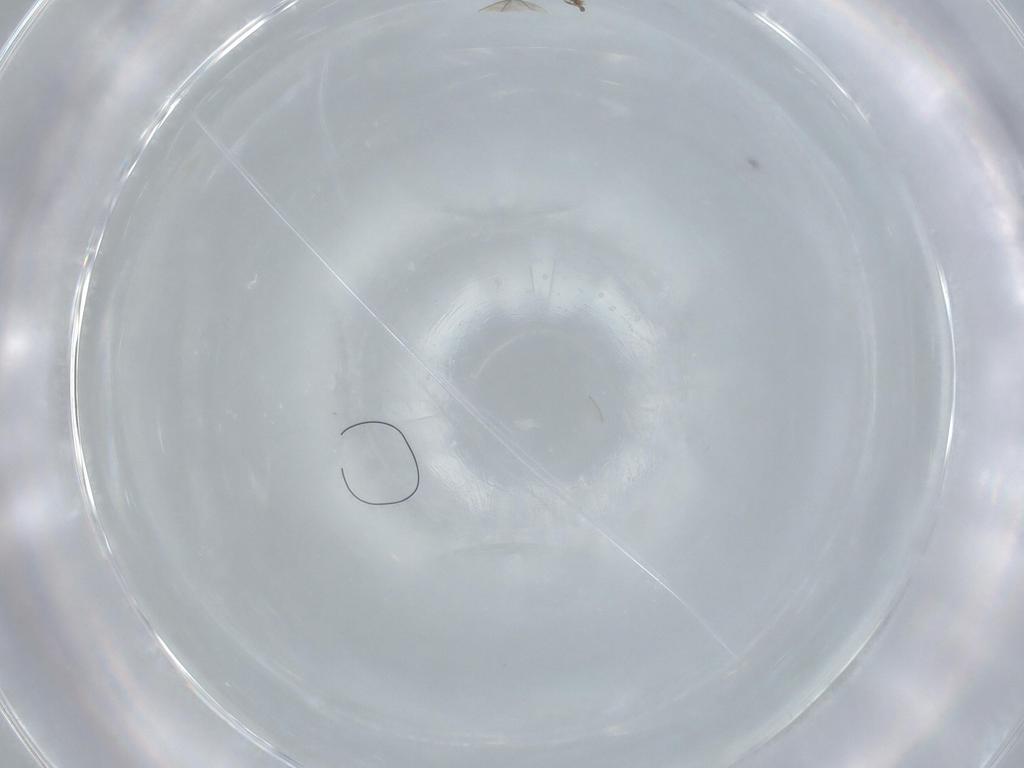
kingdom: Animalia
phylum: Arthropoda
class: Insecta
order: Diptera
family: Cecidomyiidae
